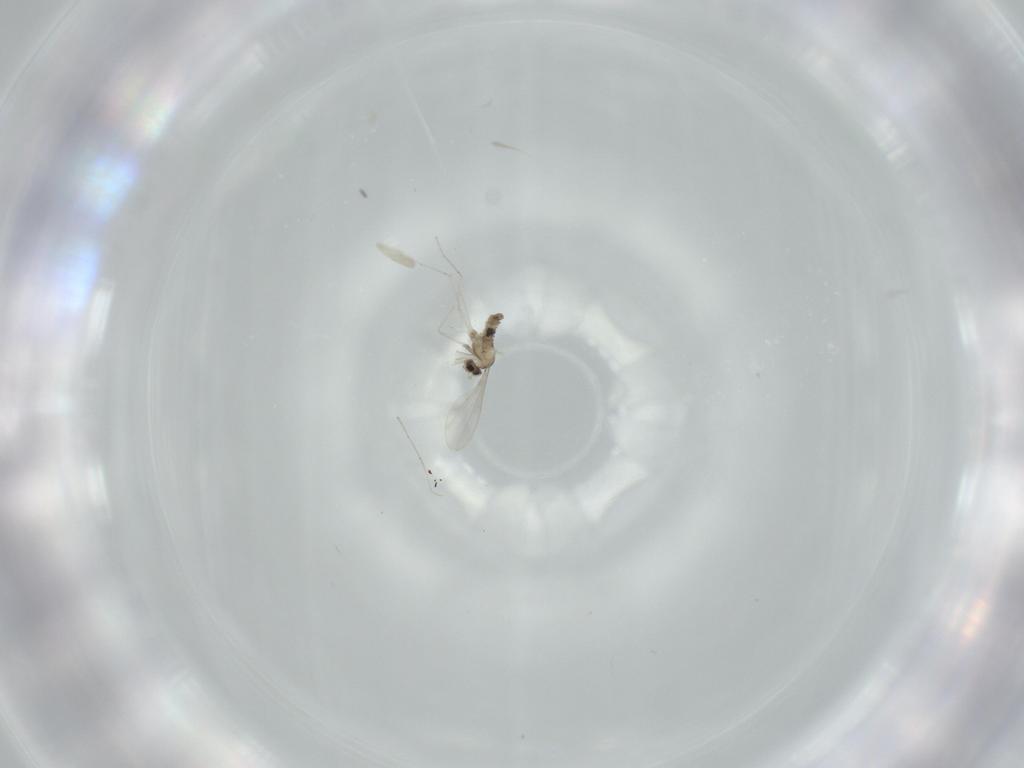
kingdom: Animalia
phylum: Arthropoda
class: Insecta
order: Diptera
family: Cecidomyiidae
